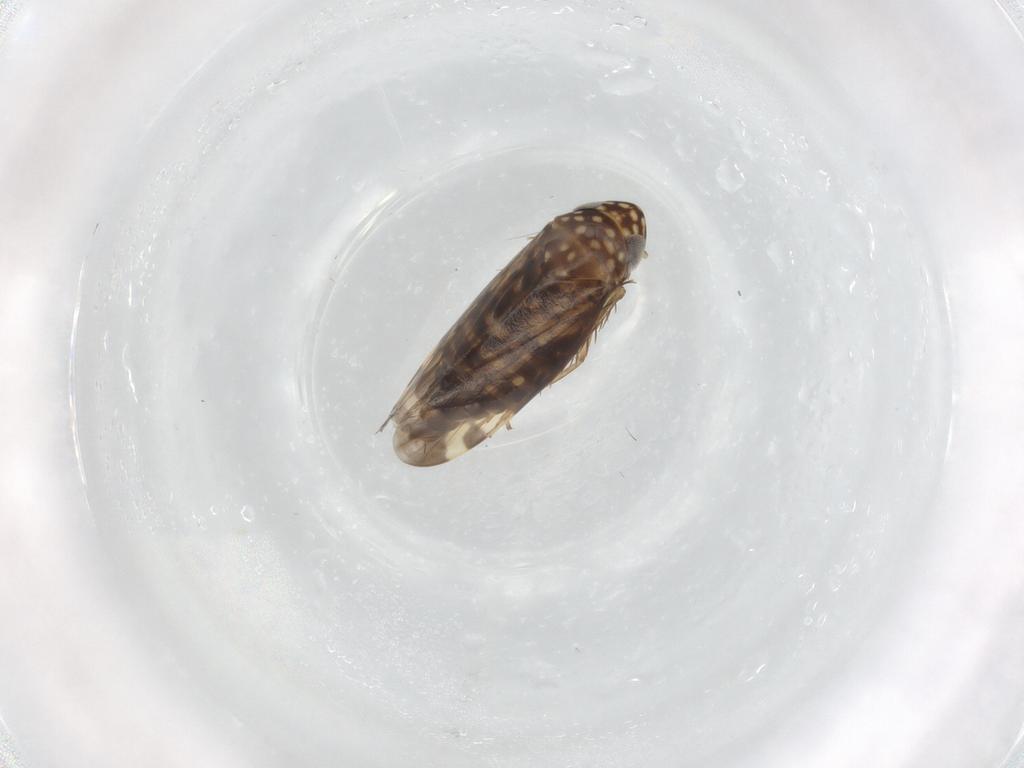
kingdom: Animalia
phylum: Arthropoda
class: Insecta
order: Hemiptera
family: Cicadellidae
